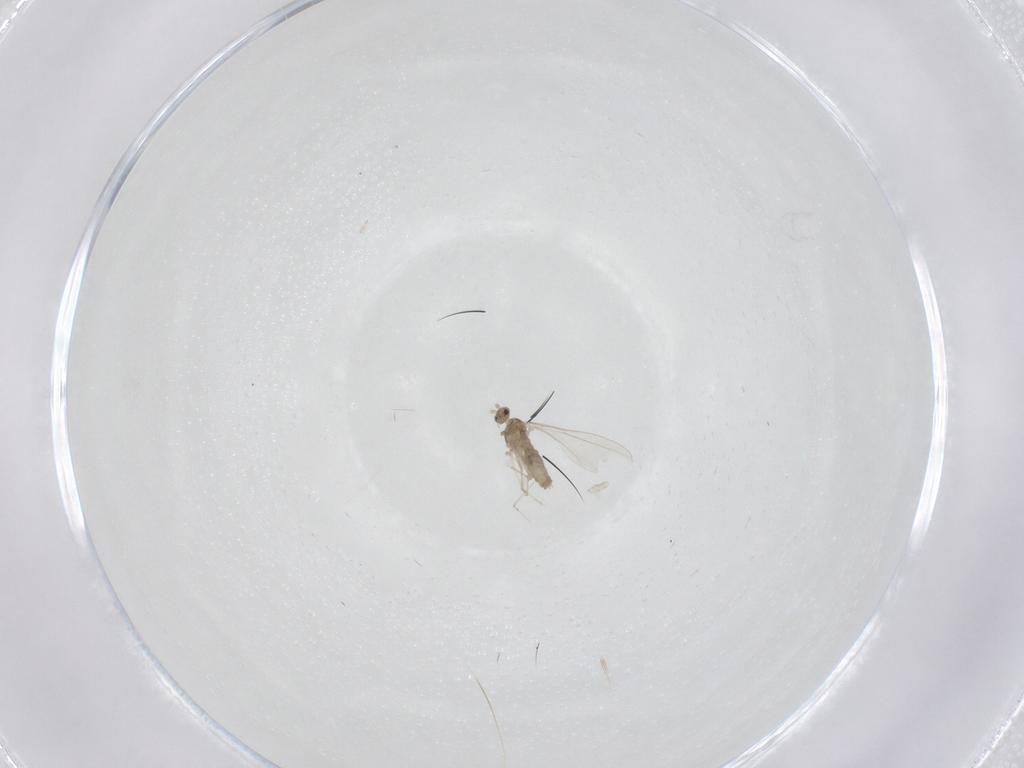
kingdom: Animalia
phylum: Arthropoda
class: Insecta
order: Diptera
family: Cecidomyiidae
